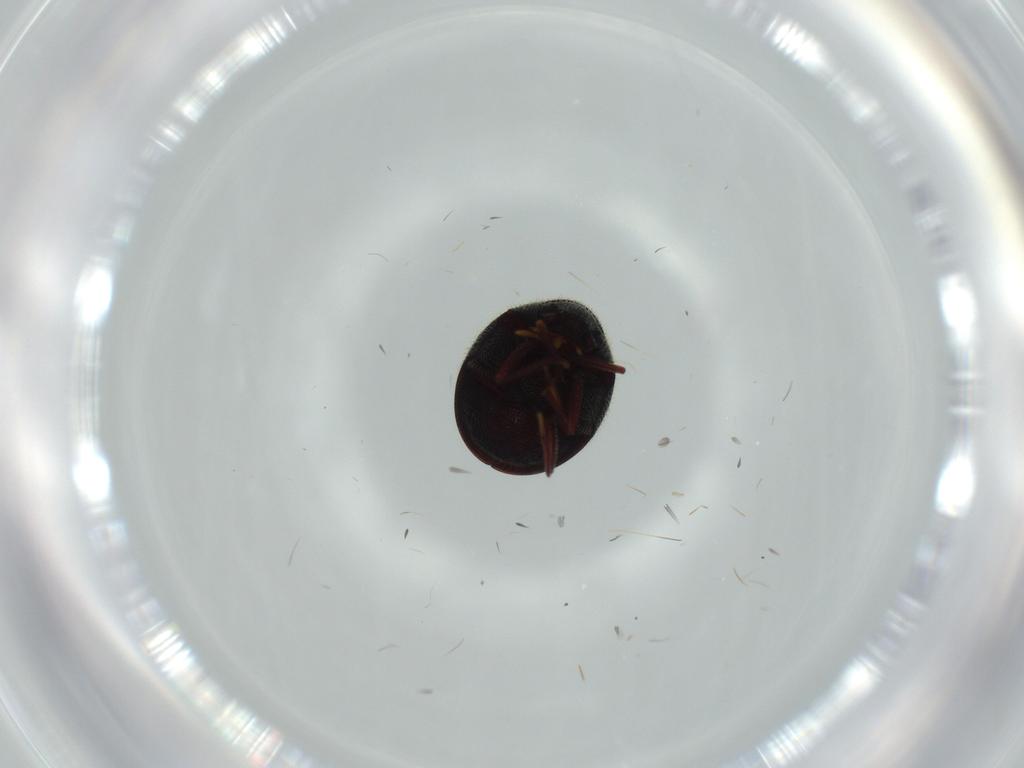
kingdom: Animalia
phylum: Arthropoda
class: Insecta
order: Coleoptera
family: Ptinidae
